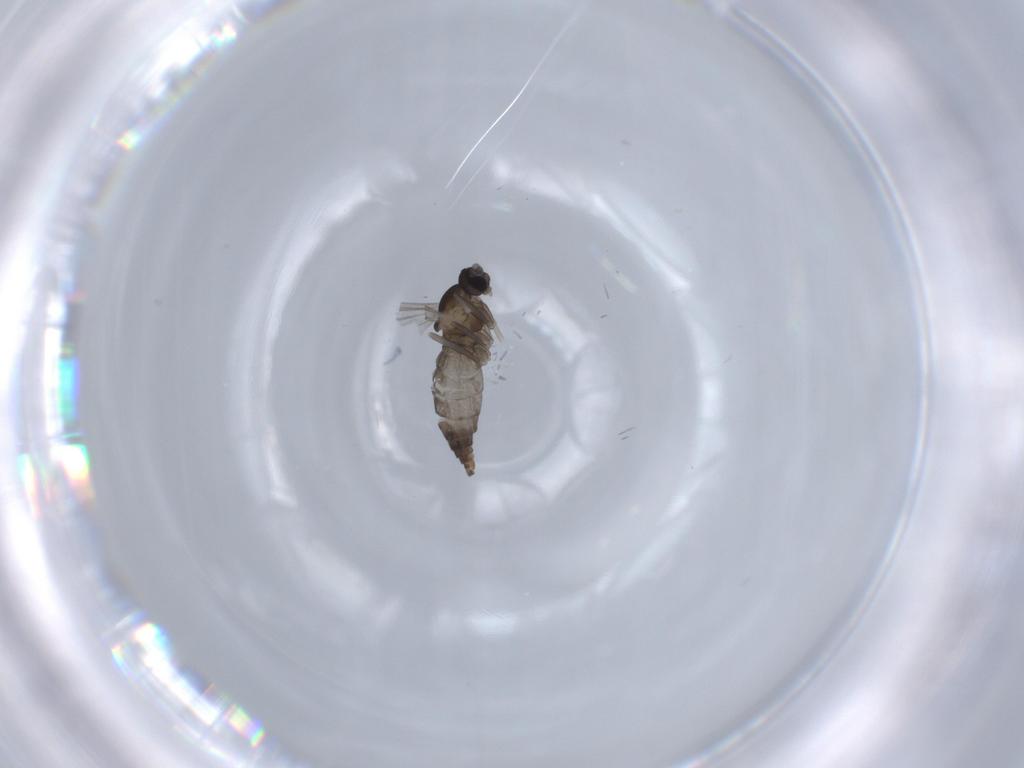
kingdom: Animalia
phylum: Arthropoda
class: Insecta
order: Diptera
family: Cecidomyiidae
